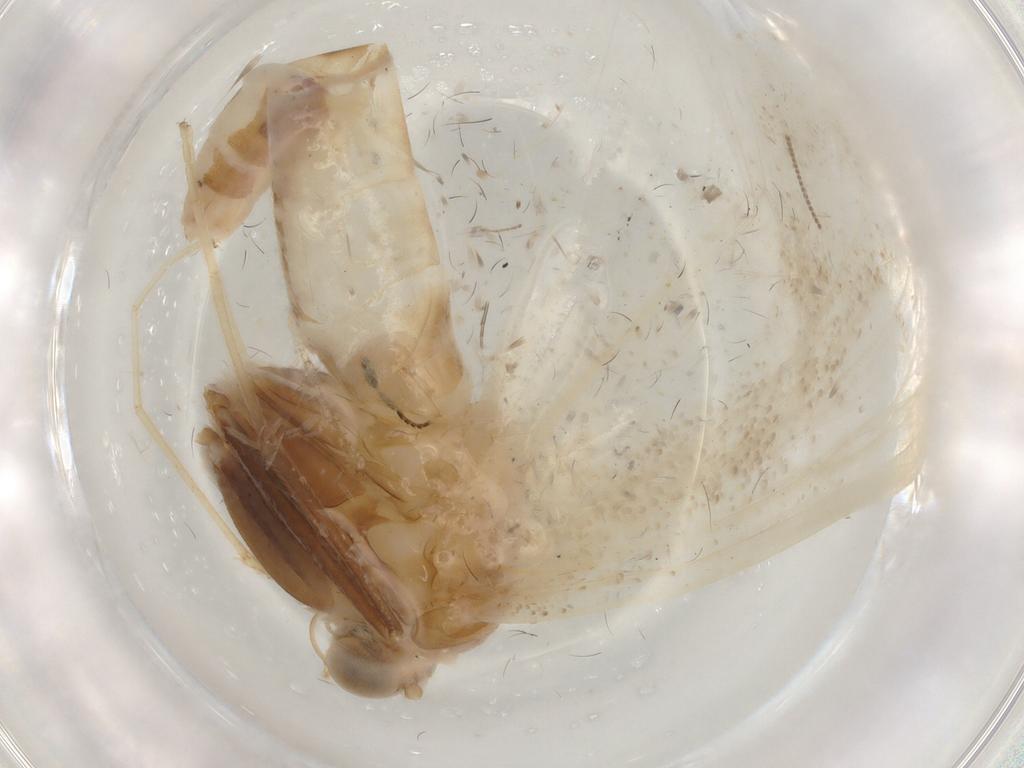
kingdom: Animalia
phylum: Arthropoda
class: Insecta
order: Lepidoptera
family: Geometridae
